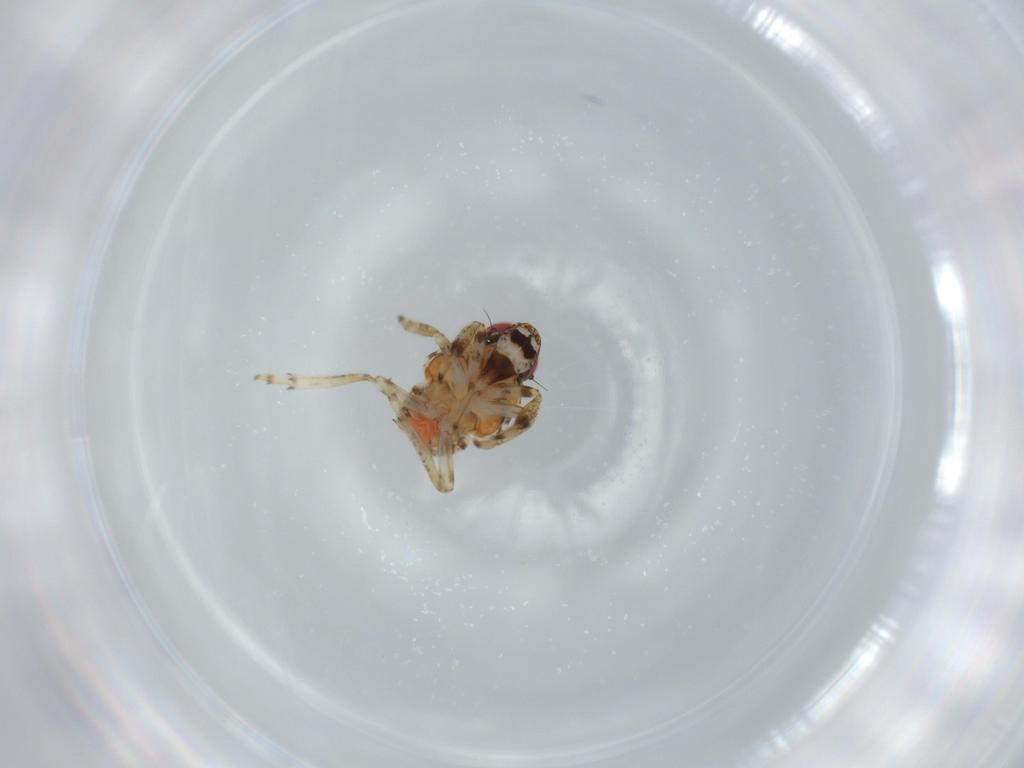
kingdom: Animalia
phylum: Arthropoda
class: Insecta
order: Hemiptera
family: Issidae
